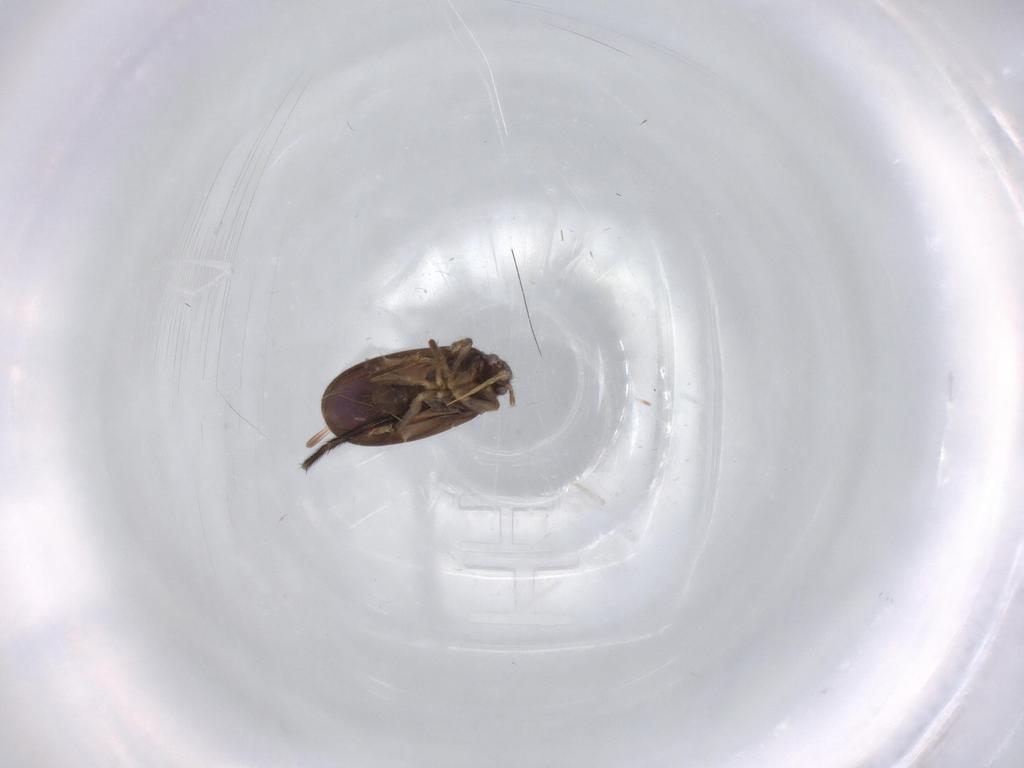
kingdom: Animalia
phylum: Arthropoda
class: Insecta
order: Hemiptera
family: Ceratocombidae
